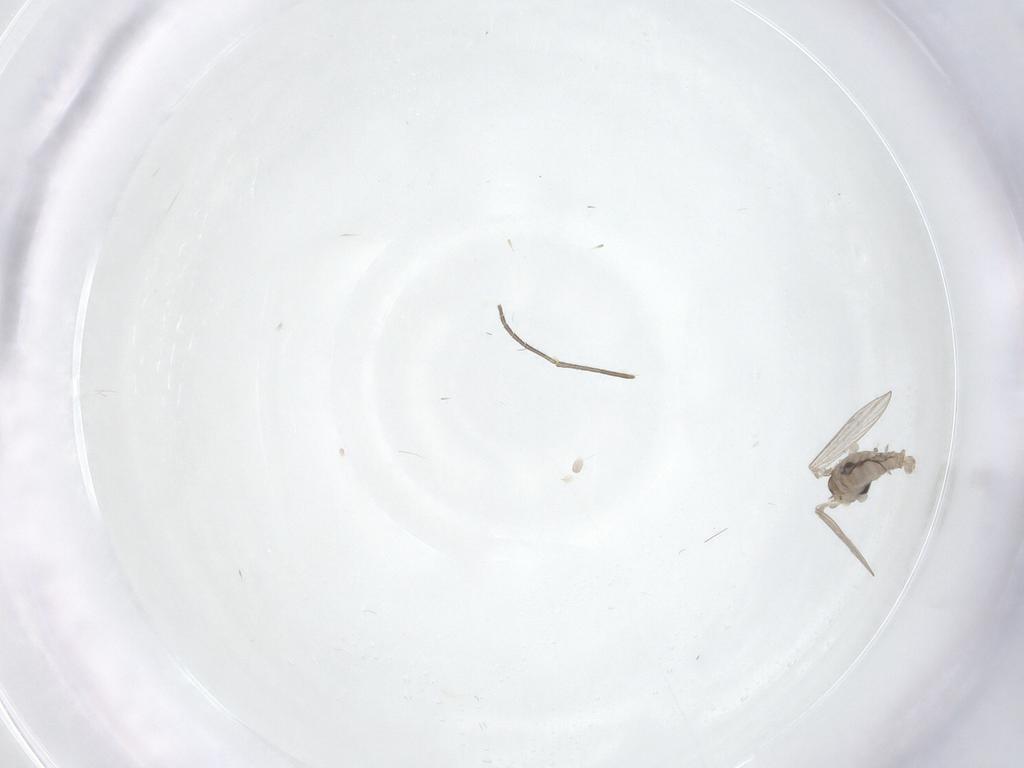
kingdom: Animalia
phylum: Arthropoda
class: Insecta
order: Diptera
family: Psychodidae
